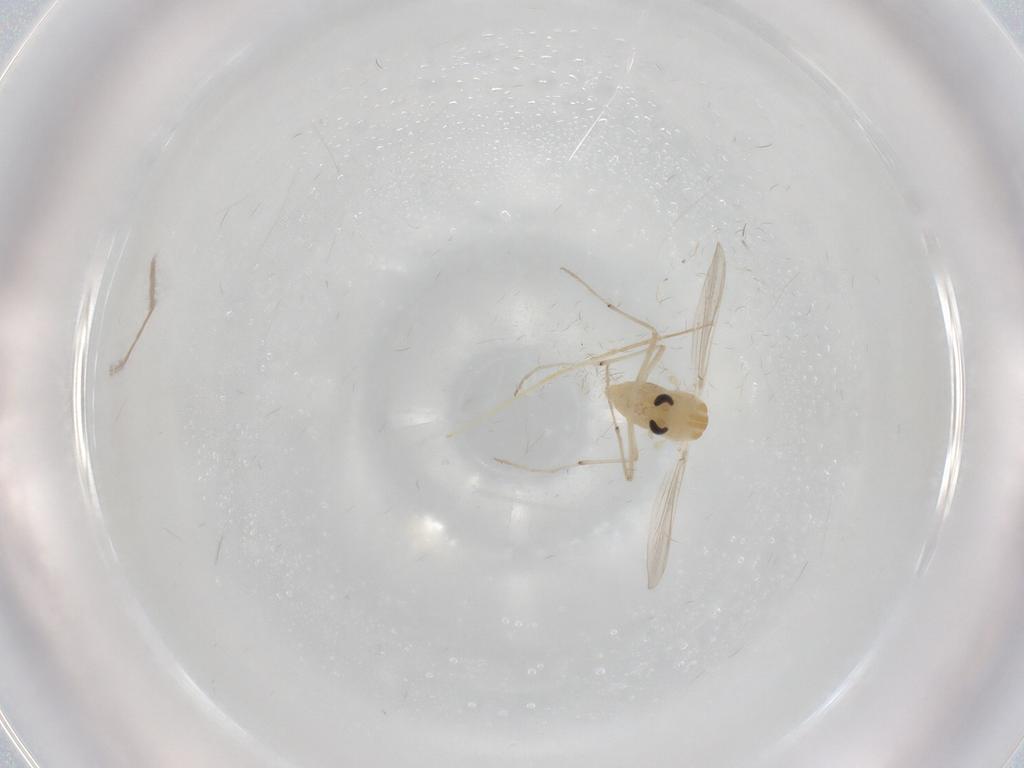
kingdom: Animalia
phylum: Arthropoda
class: Insecta
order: Diptera
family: Chironomidae
